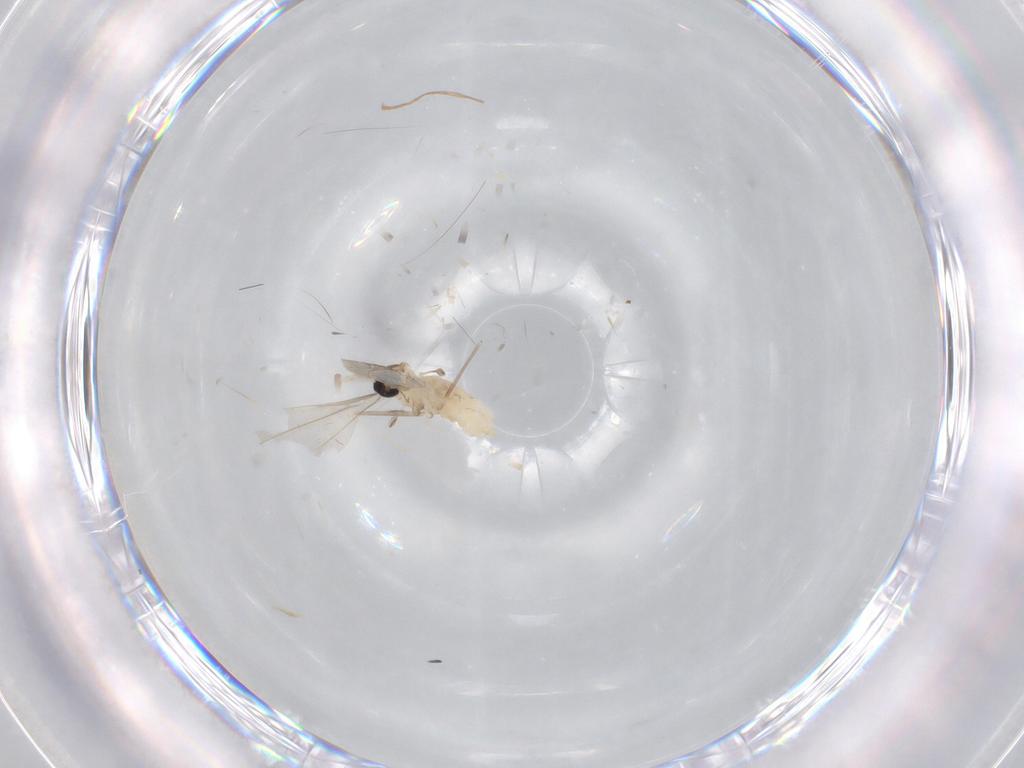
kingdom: Animalia
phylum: Arthropoda
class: Insecta
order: Diptera
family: Cecidomyiidae
